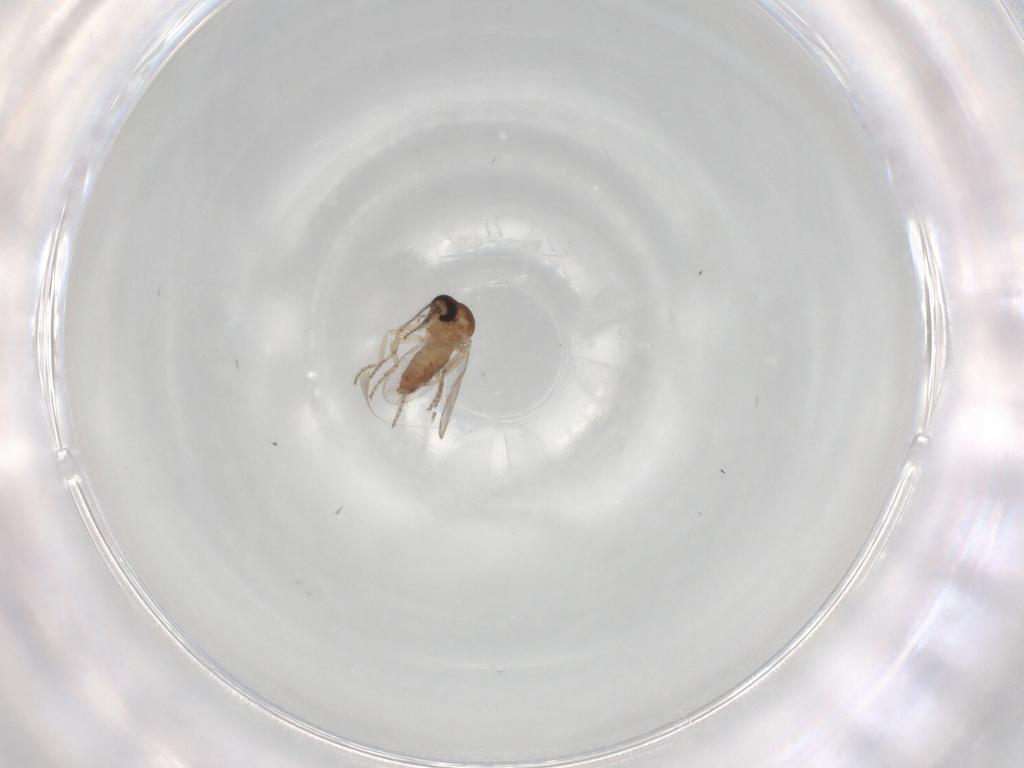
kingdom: Animalia
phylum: Arthropoda
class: Insecta
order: Diptera
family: Ceratopogonidae
